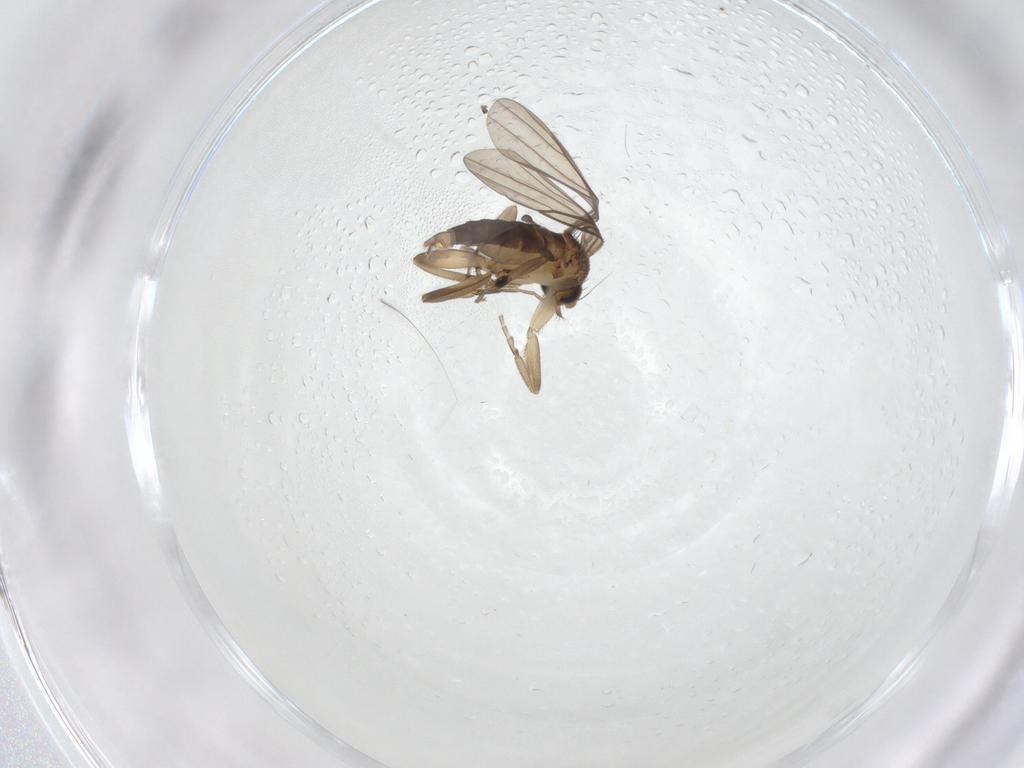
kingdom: Animalia
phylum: Arthropoda
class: Insecta
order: Diptera
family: Phoridae
